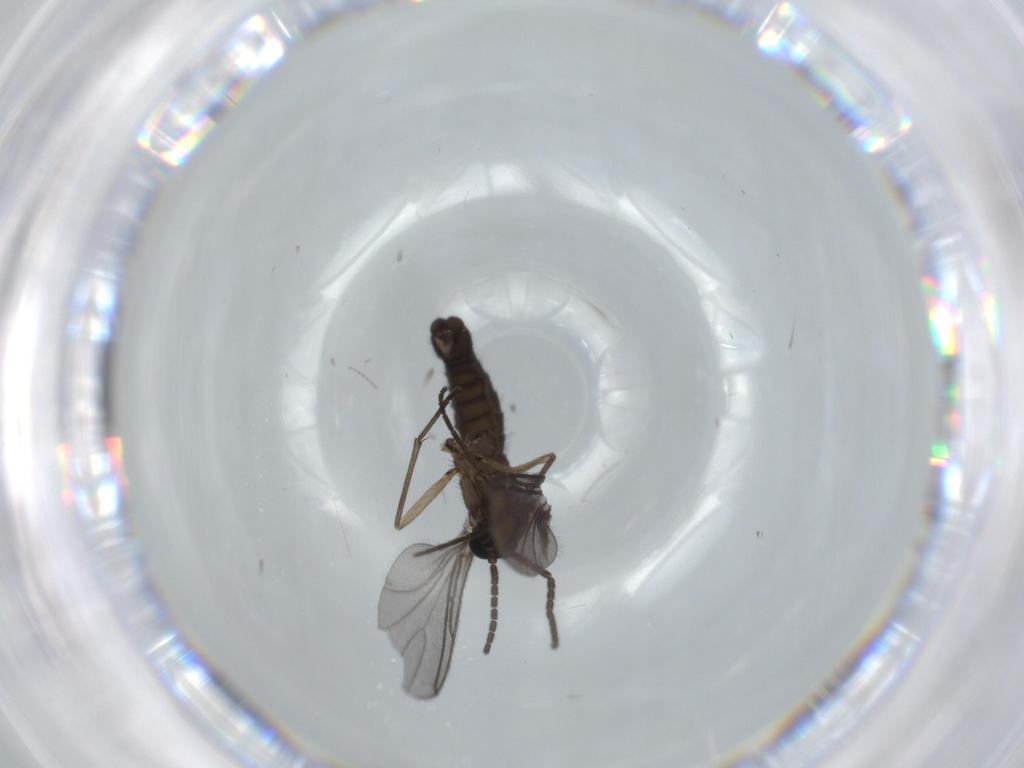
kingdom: Animalia
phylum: Arthropoda
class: Insecta
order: Diptera
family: Sciaridae
